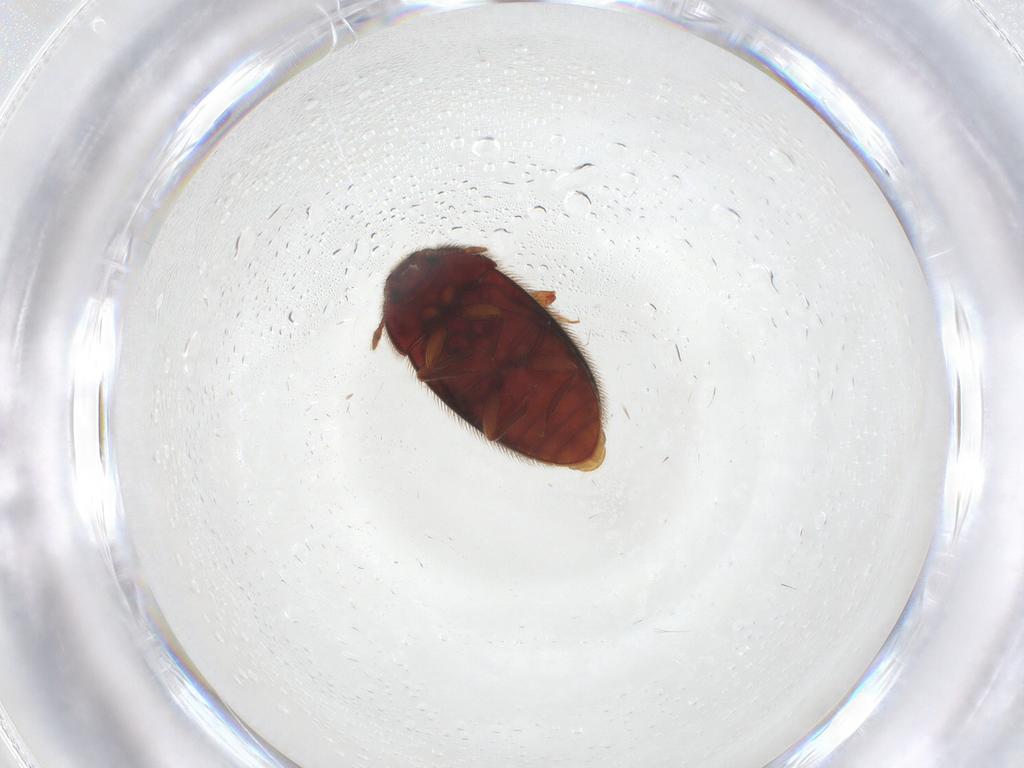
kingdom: Animalia
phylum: Arthropoda
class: Insecta
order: Coleoptera
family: Biphyllidae
